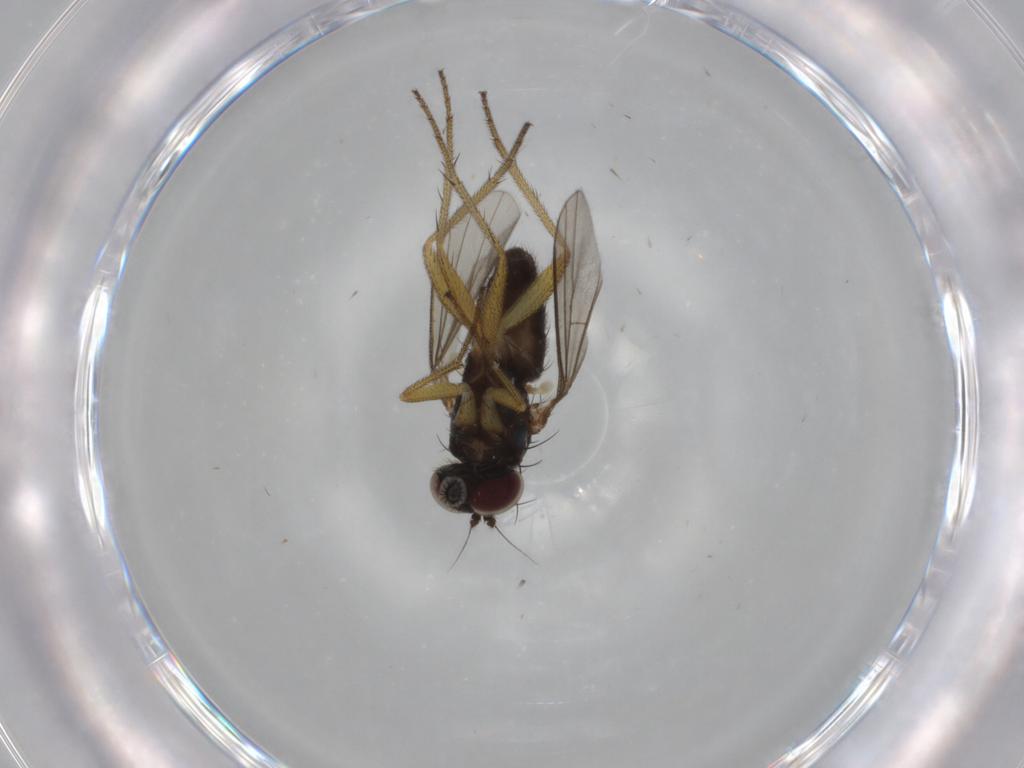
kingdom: Animalia
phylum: Arthropoda
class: Insecta
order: Diptera
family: Dolichopodidae
